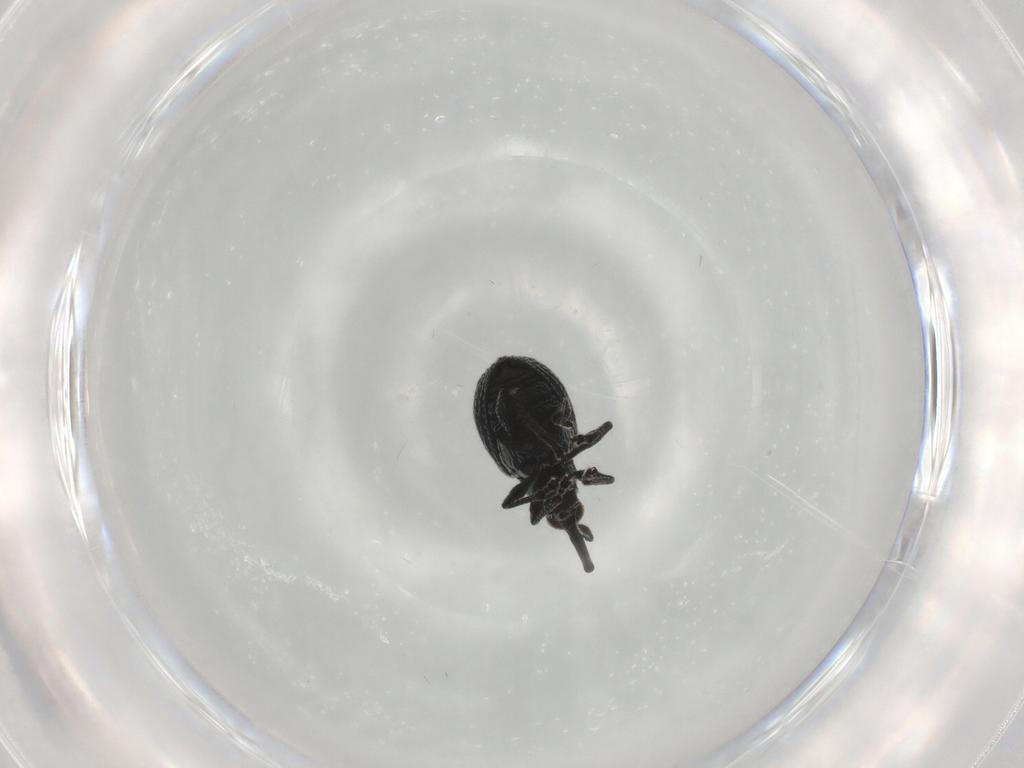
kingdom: Animalia
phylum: Arthropoda
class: Insecta
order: Coleoptera
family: Brentidae
